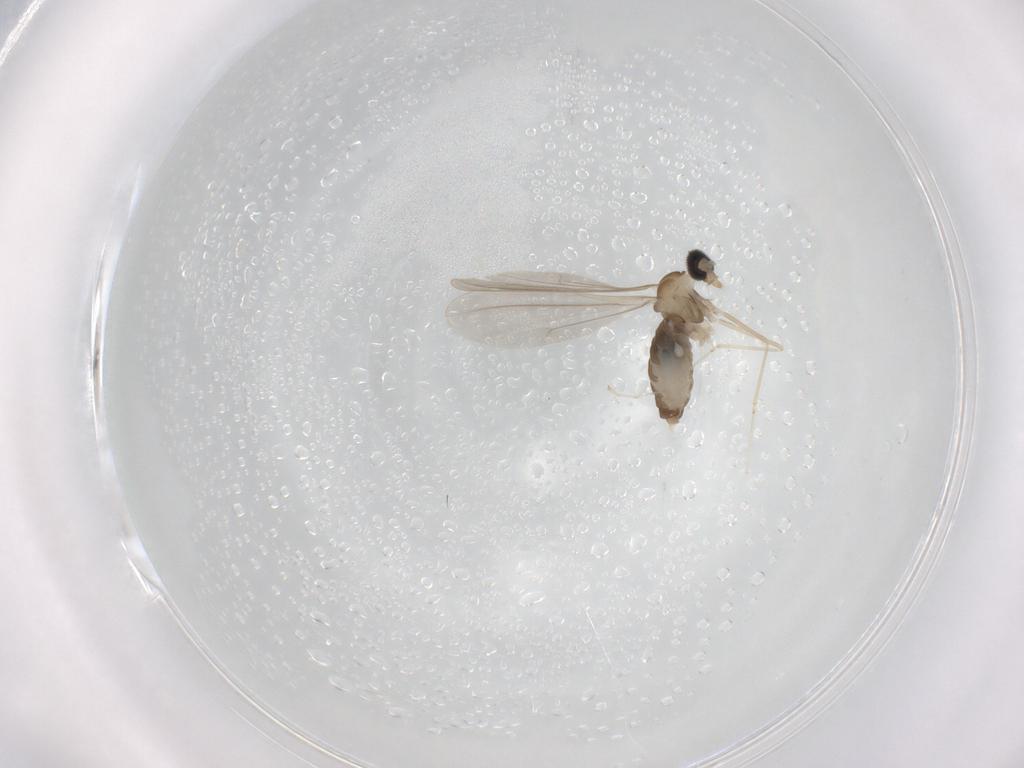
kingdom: Animalia
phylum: Arthropoda
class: Insecta
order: Diptera
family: Cecidomyiidae
